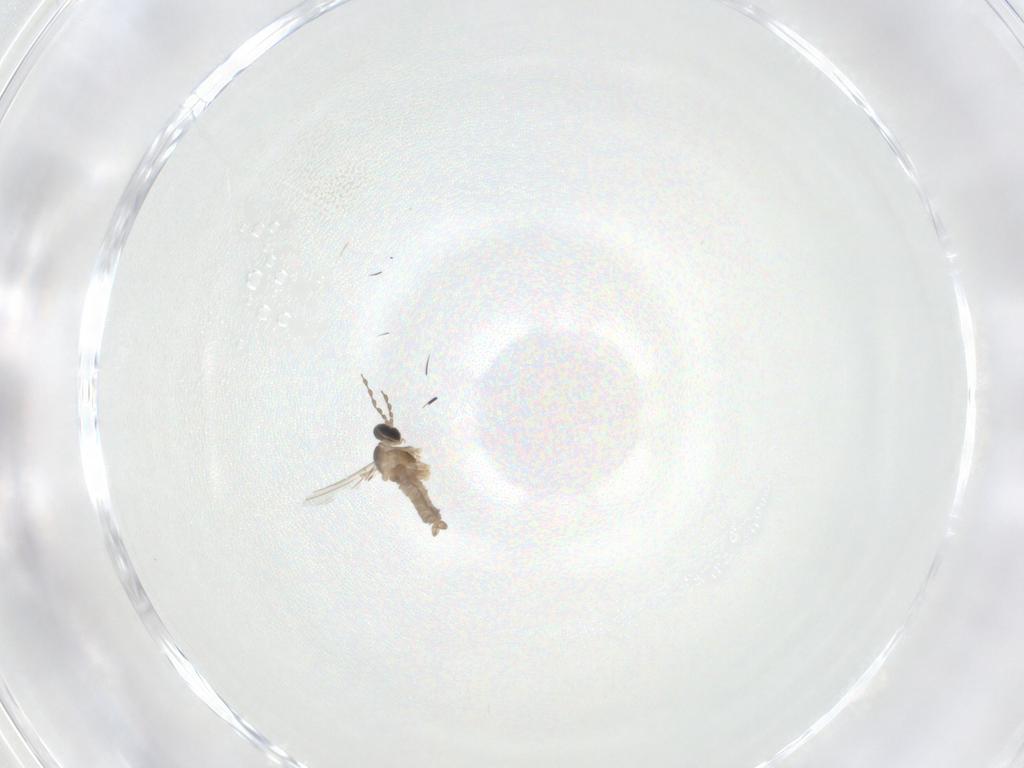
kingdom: Animalia
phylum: Arthropoda
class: Insecta
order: Diptera
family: Cecidomyiidae
